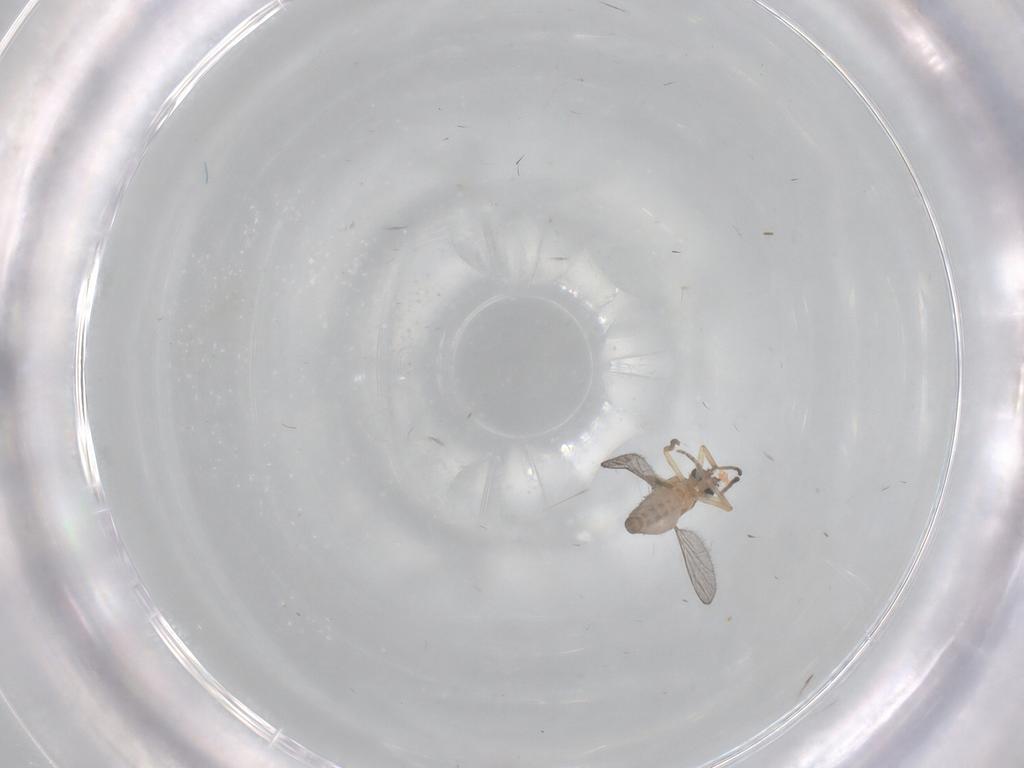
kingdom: Animalia
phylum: Arthropoda
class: Insecta
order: Diptera
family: Ceratopogonidae
